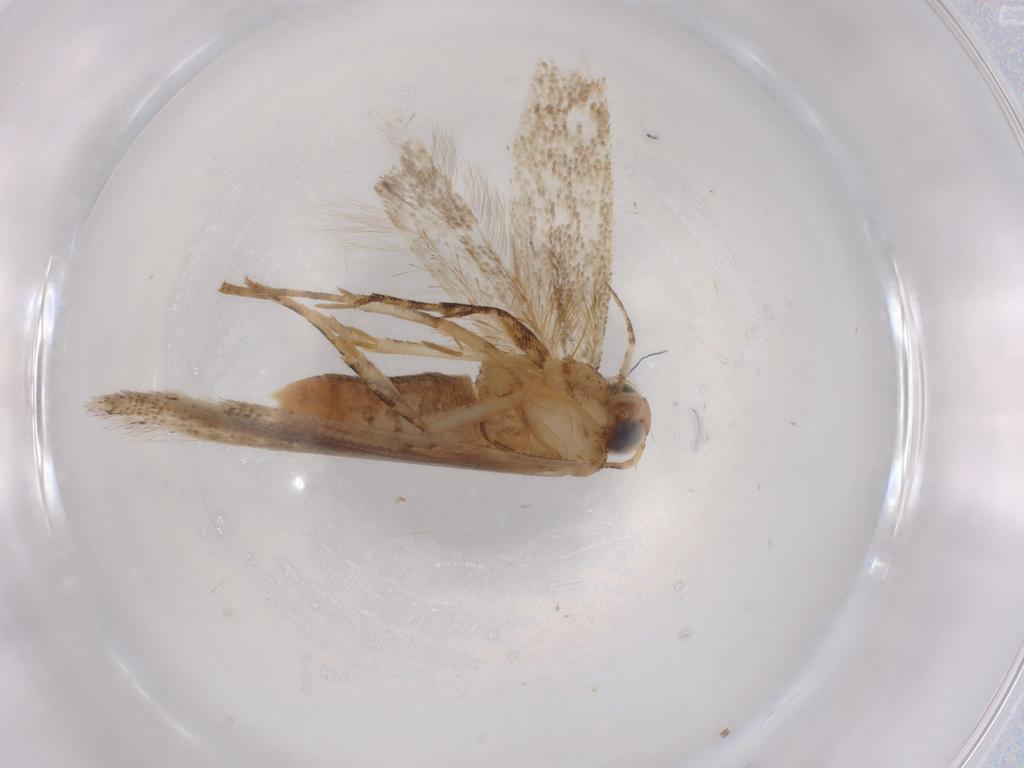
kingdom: Animalia
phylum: Arthropoda
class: Insecta
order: Lepidoptera
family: Gelechiidae
